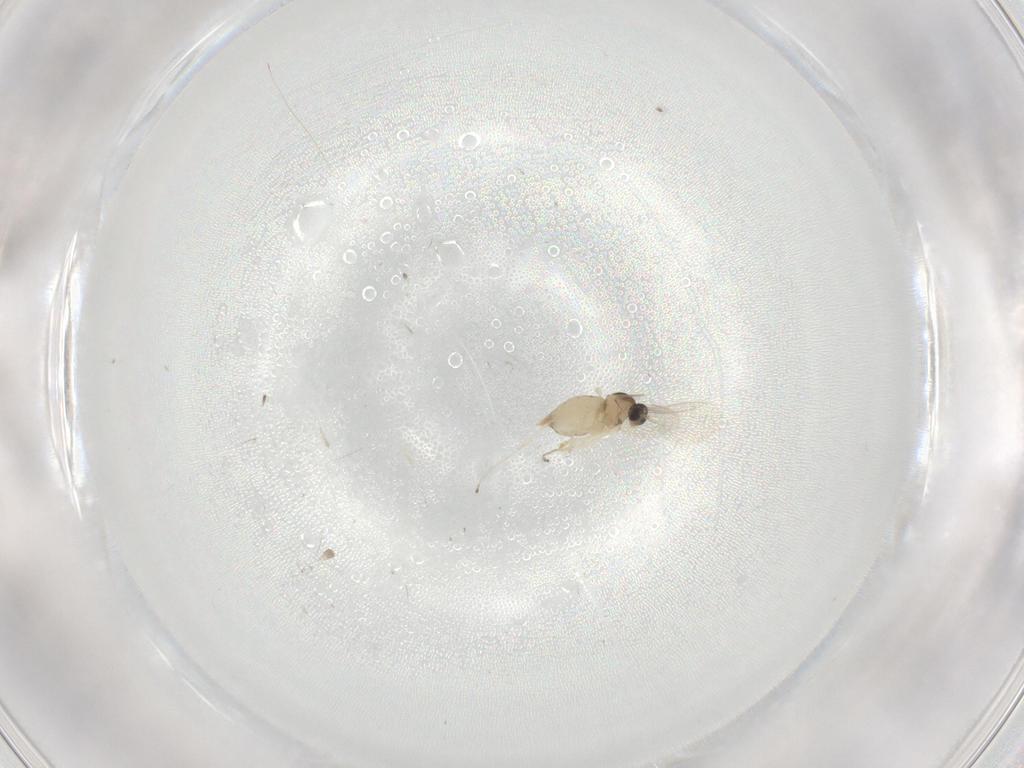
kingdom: Animalia
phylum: Arthropoda
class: Insecta
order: Diptera
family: Cecidomyiidae
